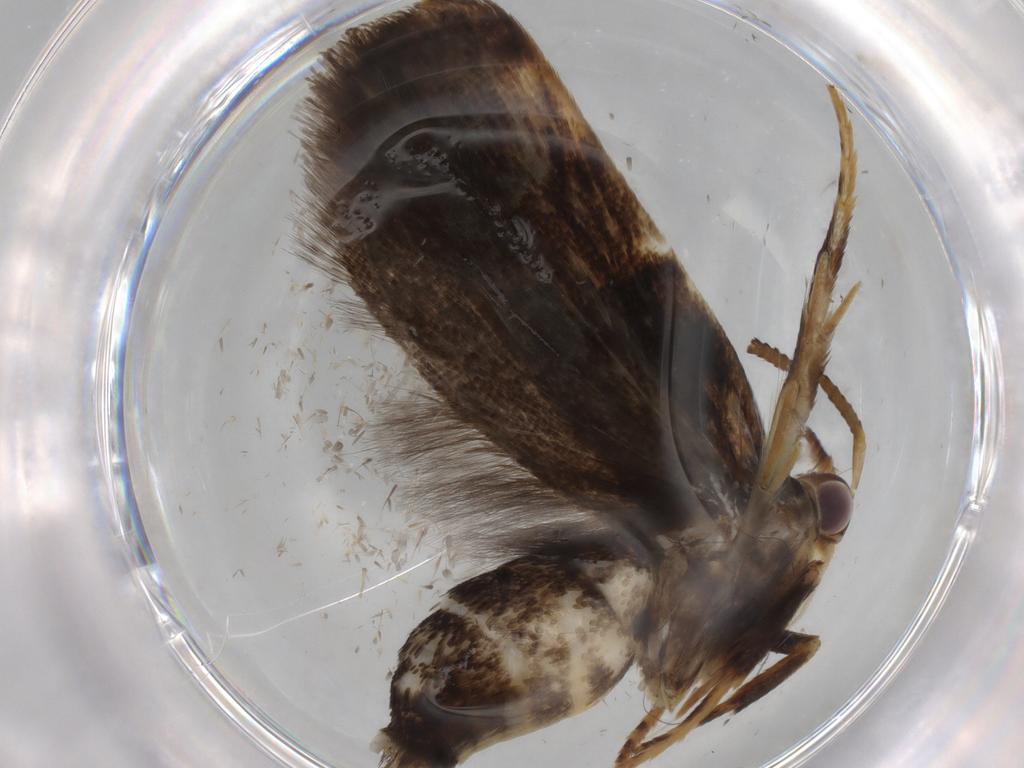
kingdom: Animalia
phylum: Arthropoda
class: Insecta
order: Lepidoptera
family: Gelechiidae
